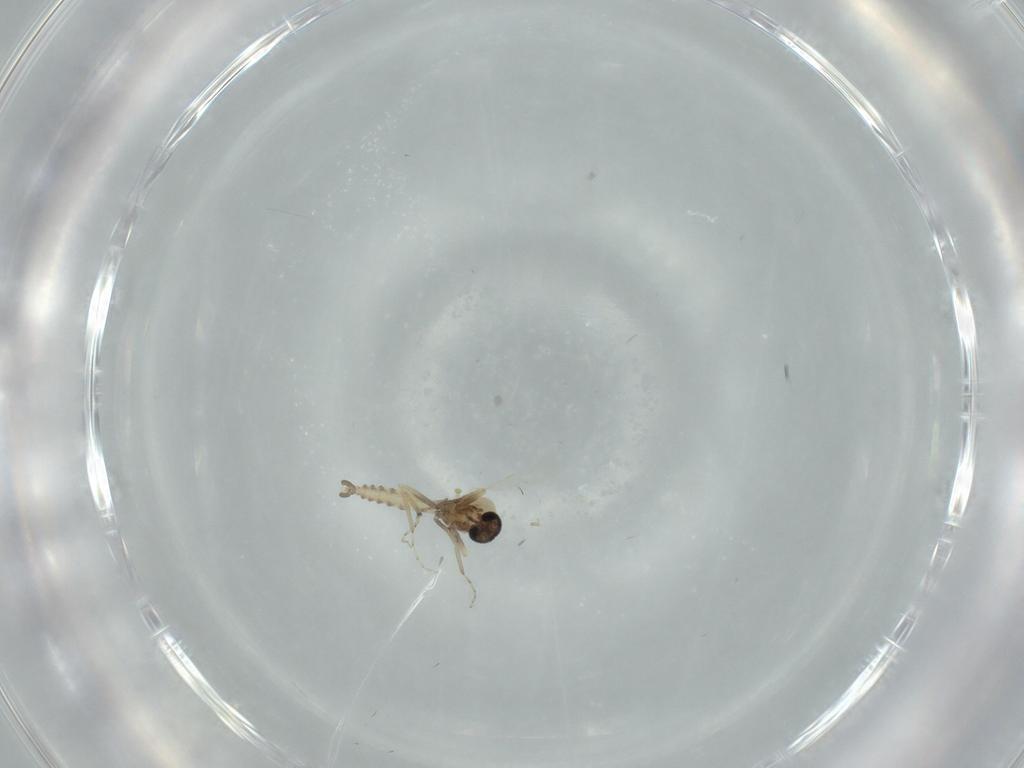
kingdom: Animalia
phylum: Arthropoda
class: Insecta
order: Diptera
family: Ceratopogonidae
